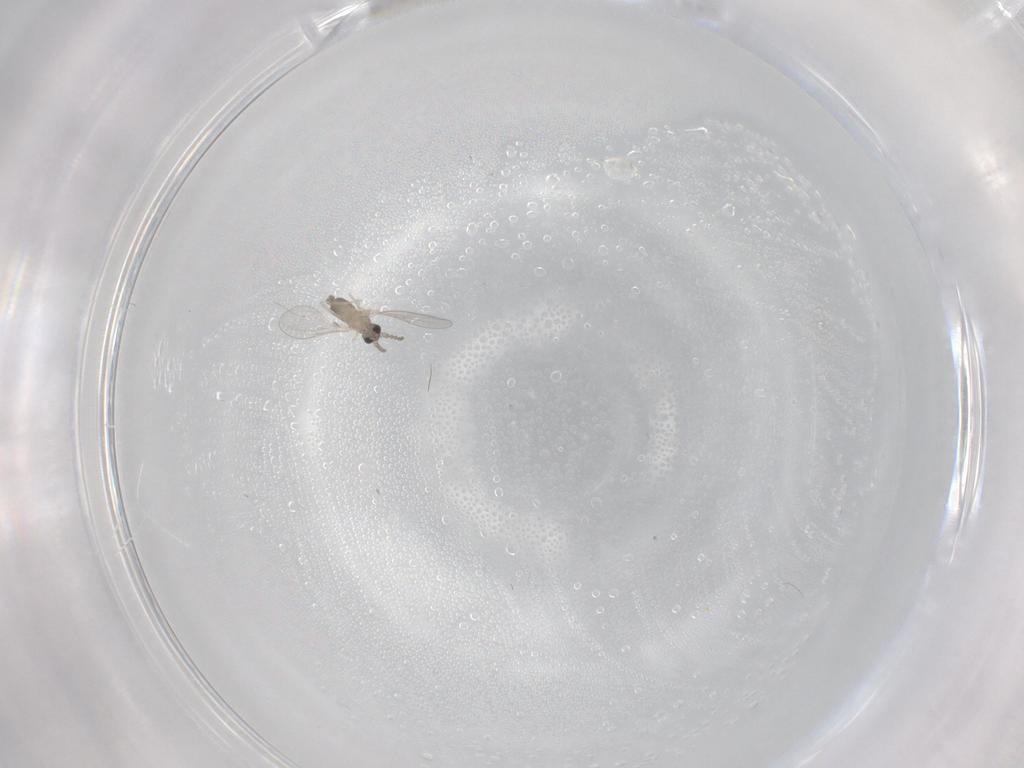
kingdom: Animalia
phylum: Arthropoda
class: Insecta
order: Diptera
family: Cecidomyiidae
